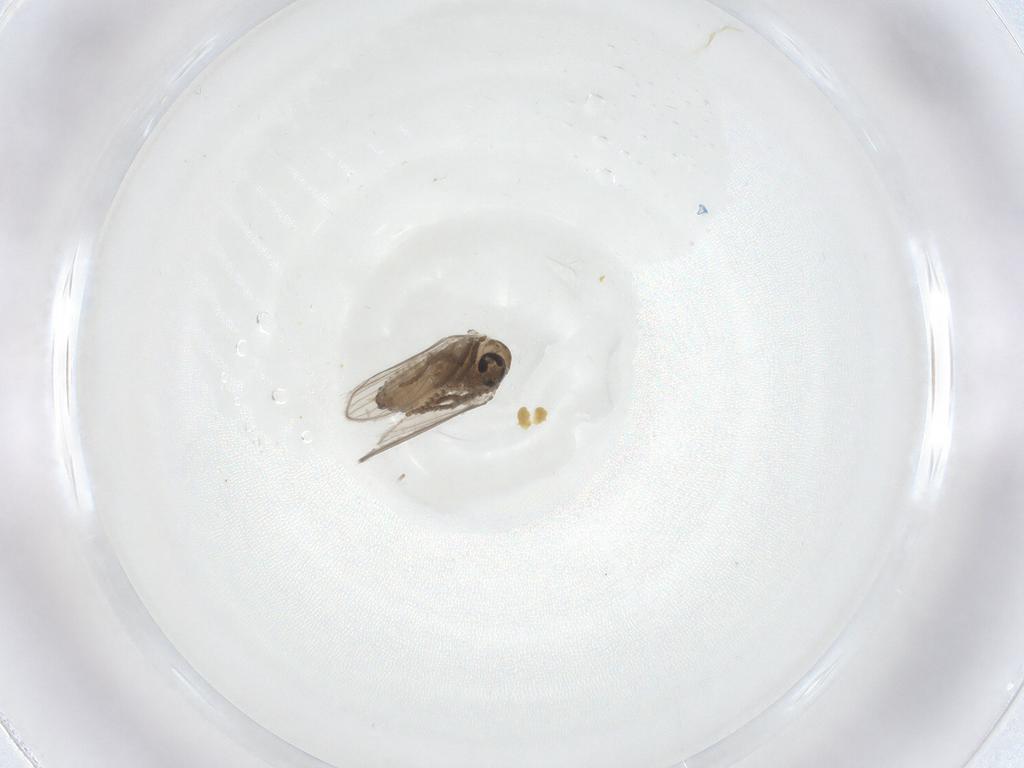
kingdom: Animalia
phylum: Arthropoda
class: Insecta
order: Diptera
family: Psychodidae
